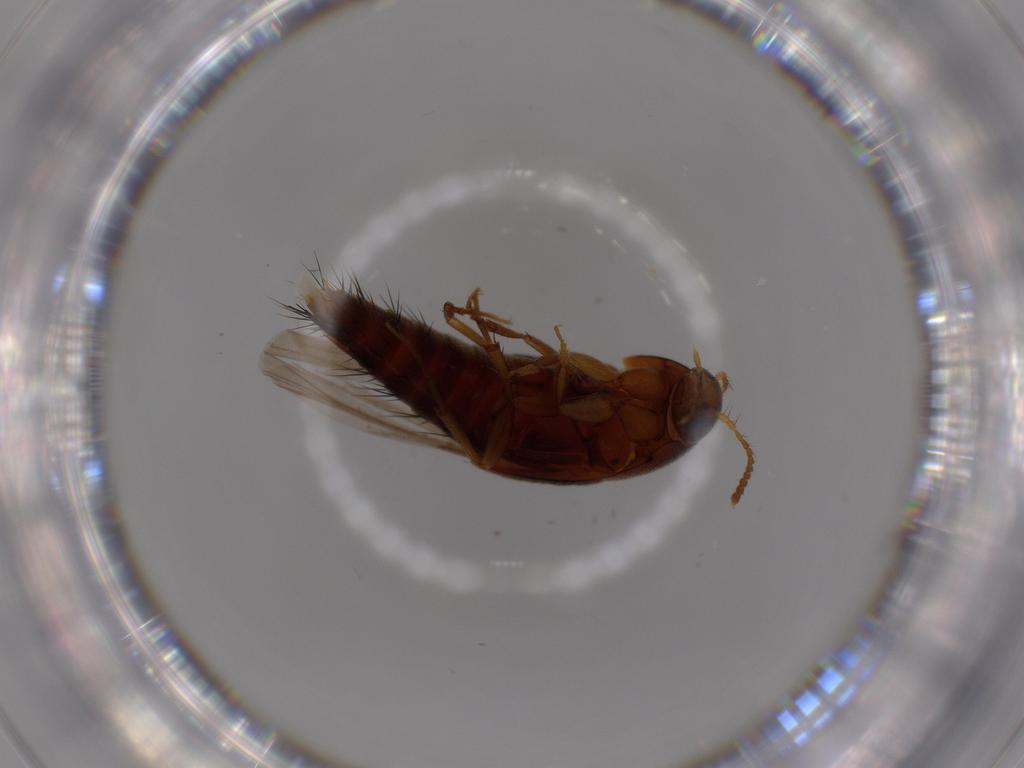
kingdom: Animalia
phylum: Arthropoda
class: Insecta
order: Coleoptera
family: Staphylinidae
